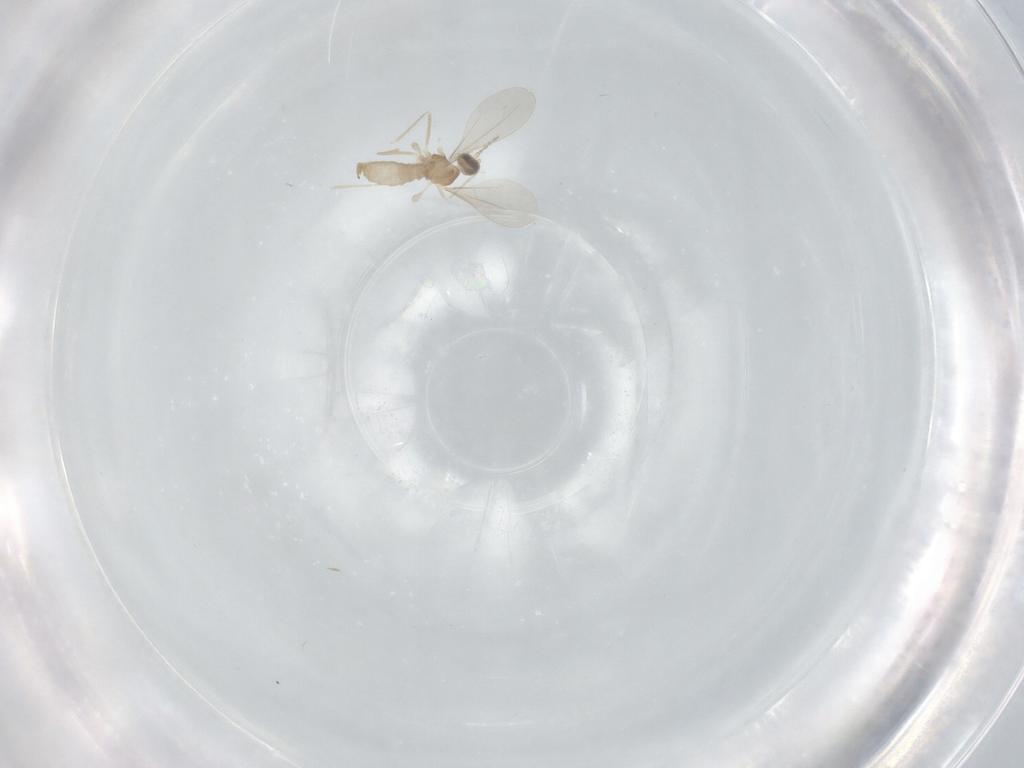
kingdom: Animalia
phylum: Arthropoda
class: Insecta
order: Diptera
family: Cecidomyiidae
